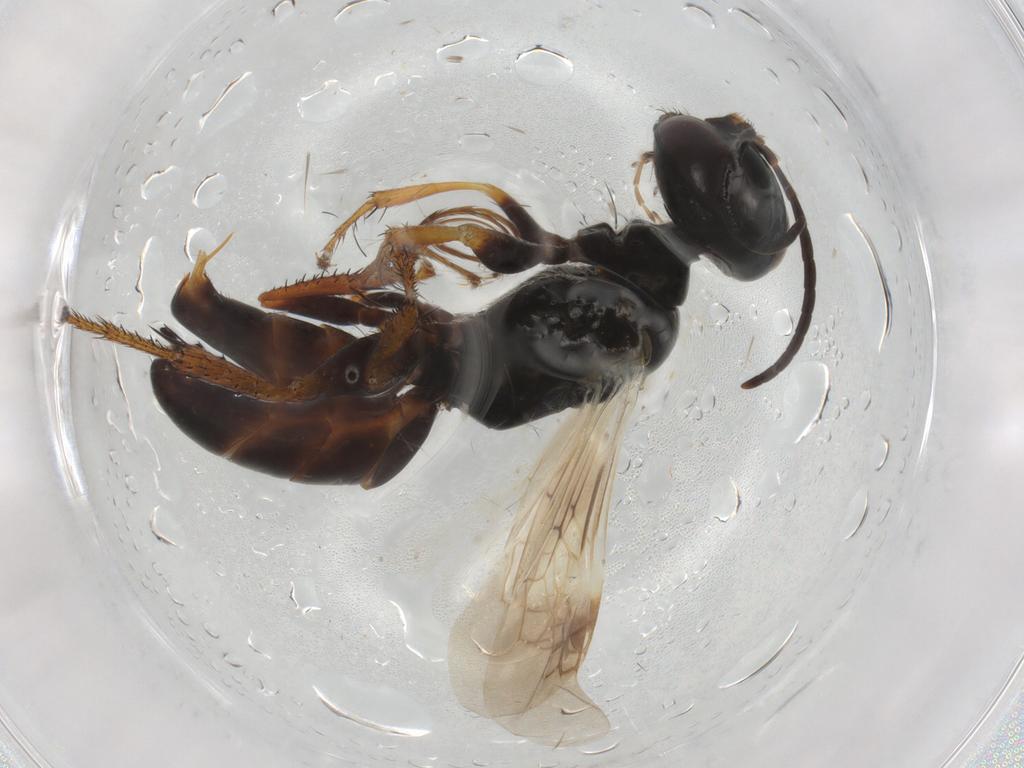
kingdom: Animalia
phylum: Arthropoda
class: Insecta
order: Hymenoptera
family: Crabronidae
